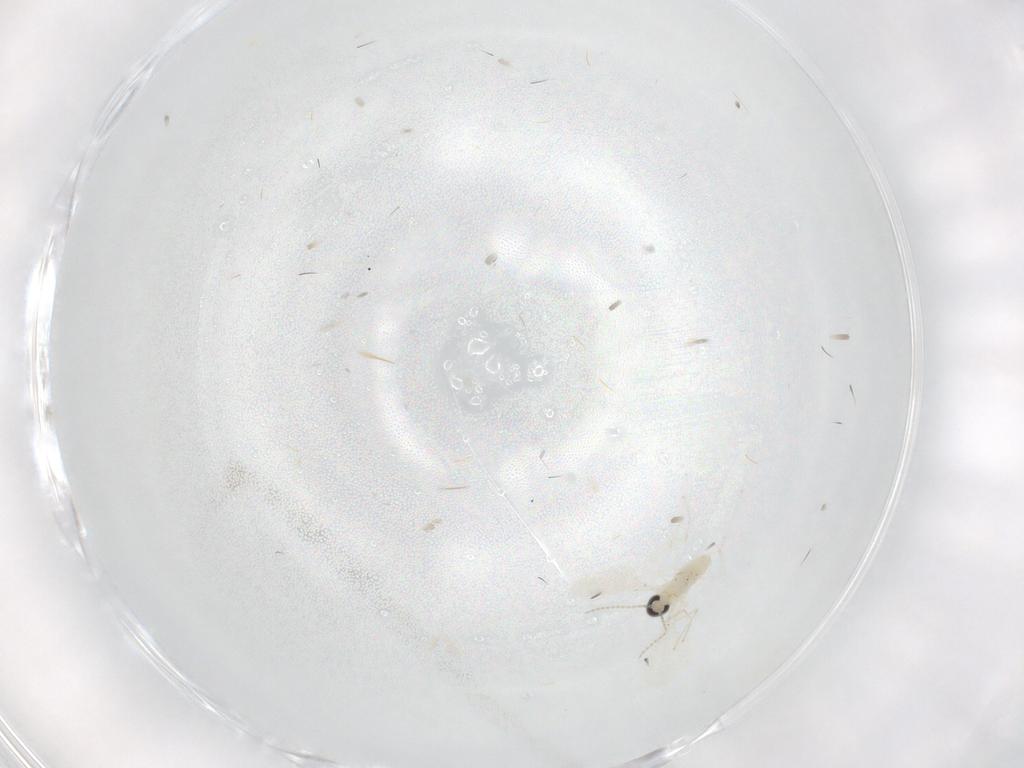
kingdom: Animalia
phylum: Arthropoda
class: Insecta
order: Diptera
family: Cecidomyiidae
